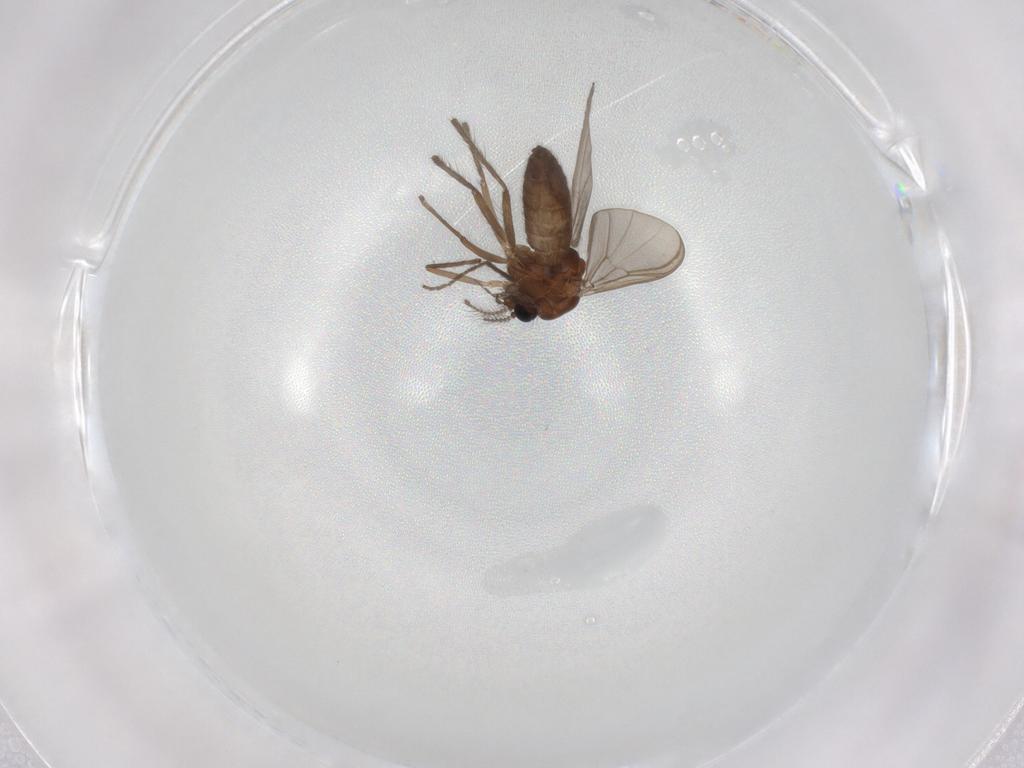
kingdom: Animalia
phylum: Arthropoda
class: Insecta
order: Diptera
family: Chironomidae
